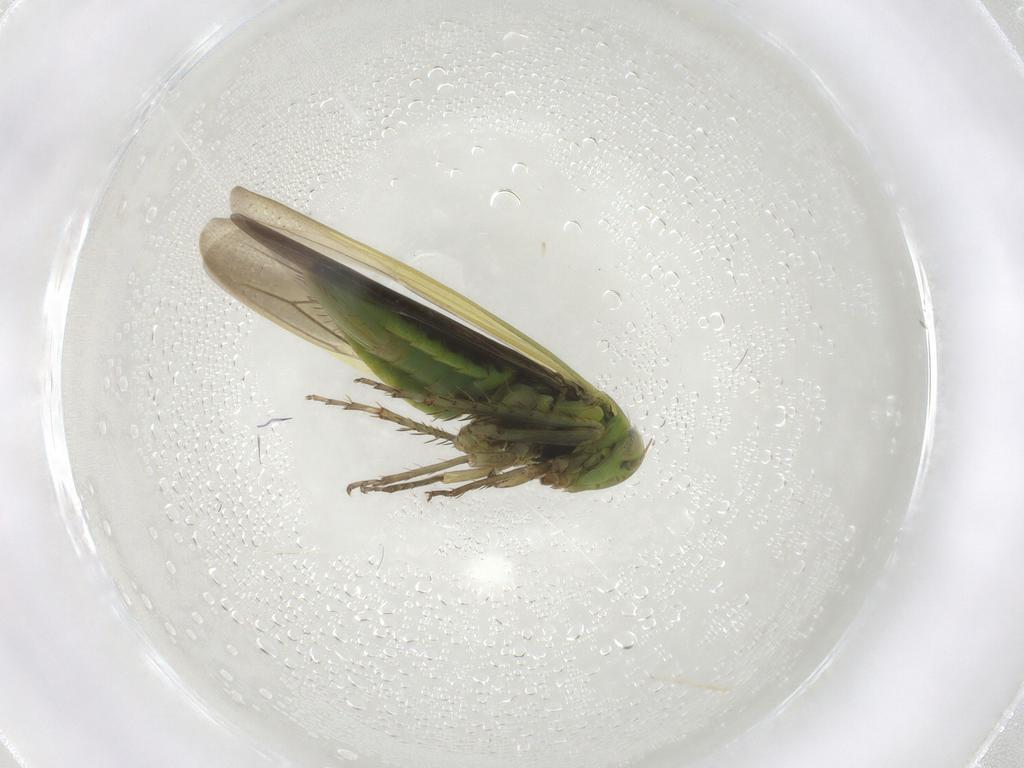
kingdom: Animalia
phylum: Arthropoda
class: Insecta
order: Hemiptera
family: Cicadellidae
